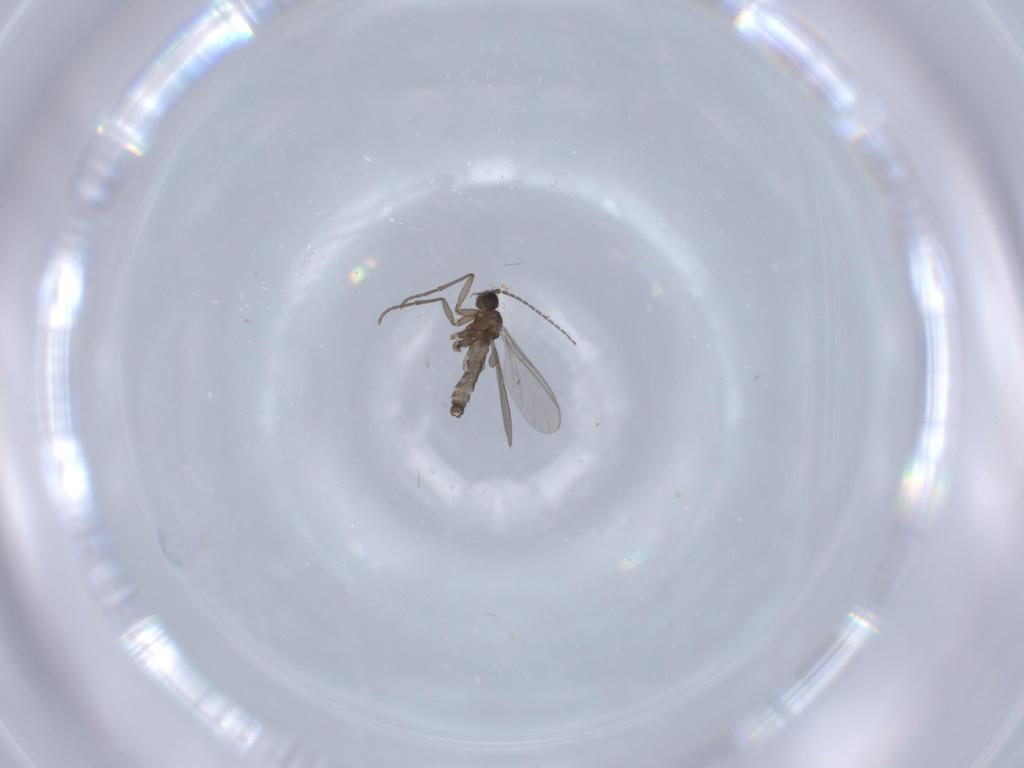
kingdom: Animalia
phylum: Arthropoda
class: Insecta
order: Diptera
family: Sciaridae
